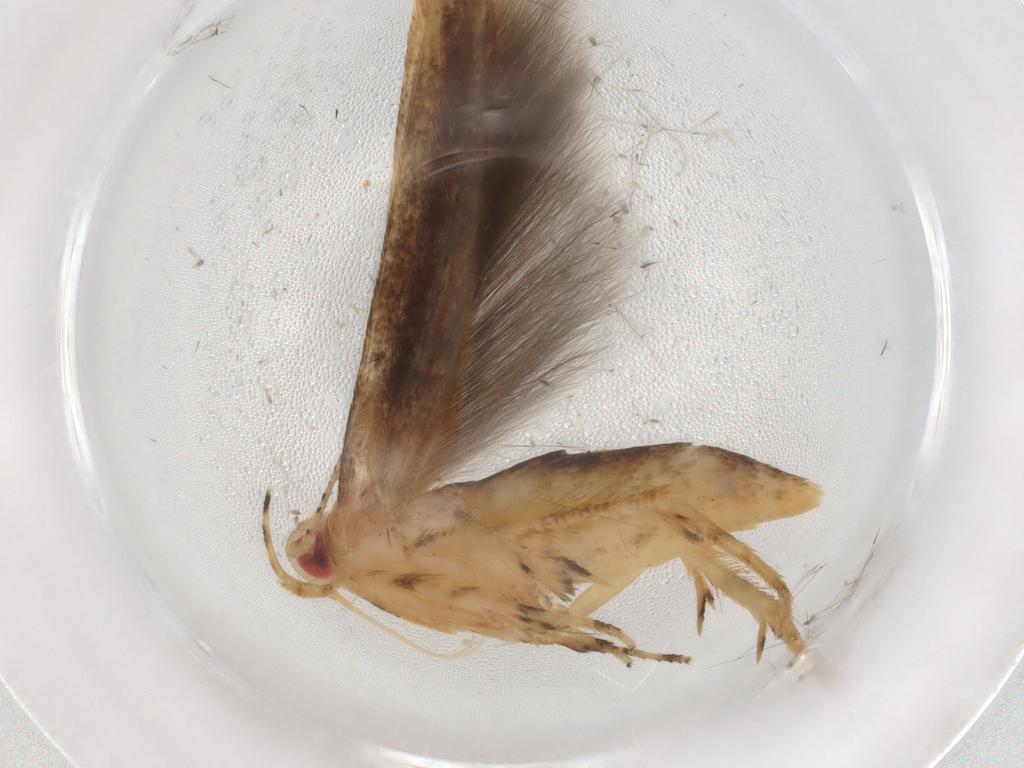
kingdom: Animalia
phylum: Arthropoda
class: Insecta
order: Lepidoptera
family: Cosmopterigidae
